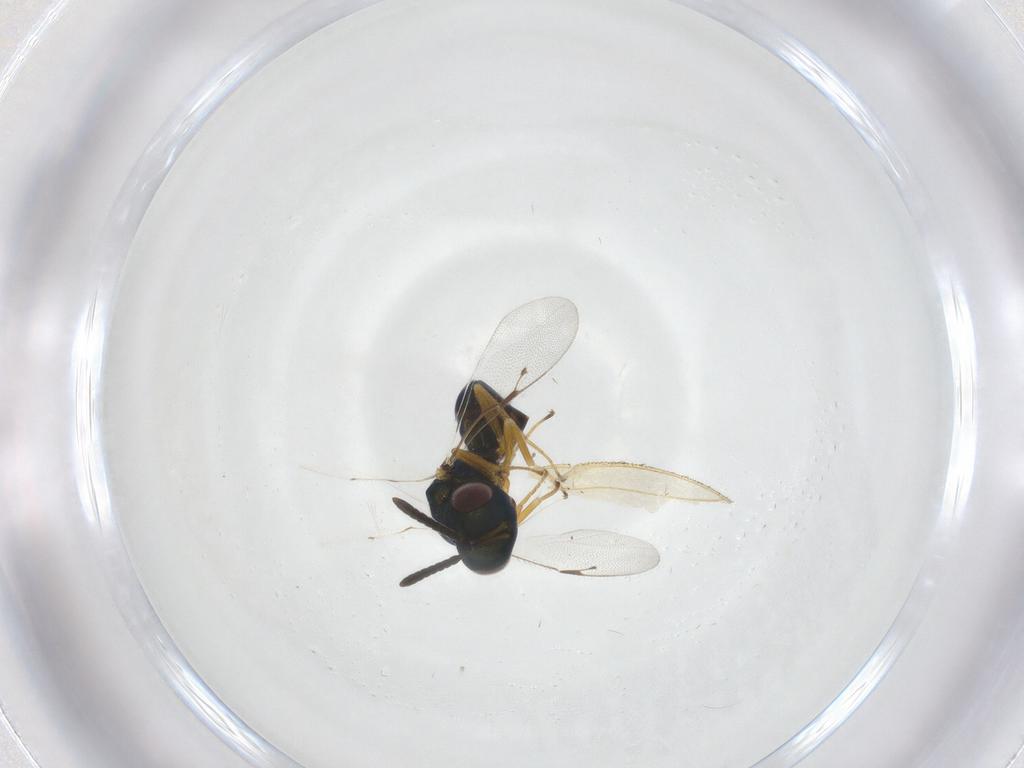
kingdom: Animalia
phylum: Arthropoda
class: Insecta
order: Hymenoptera
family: Pteromalidae
